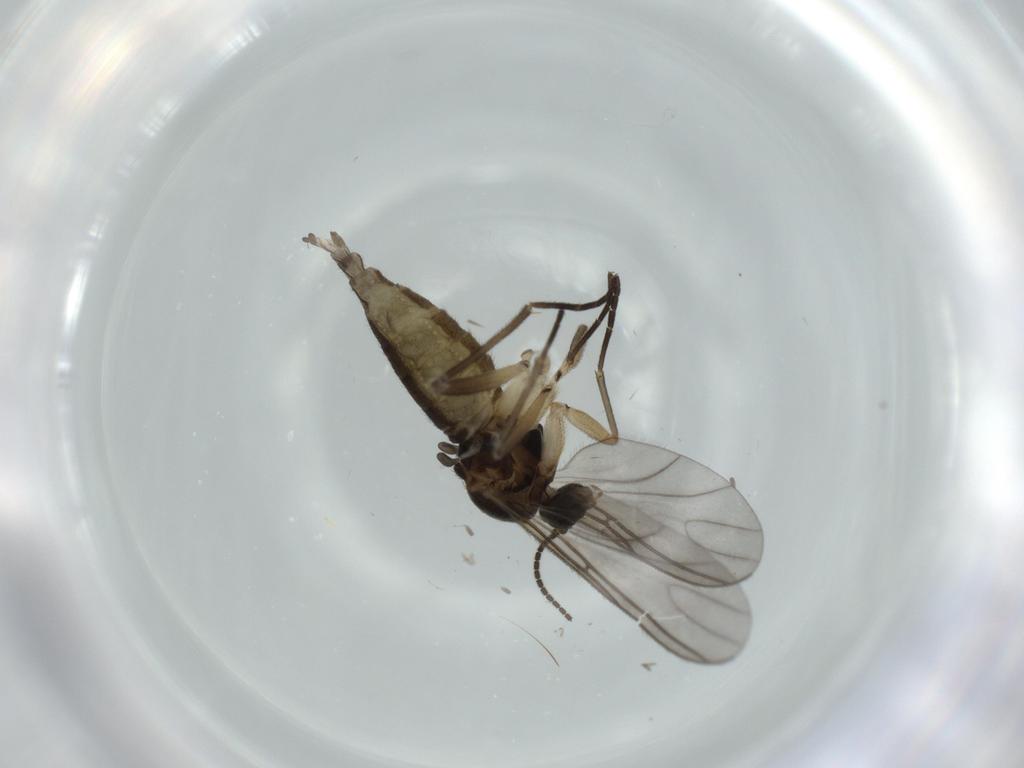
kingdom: Animalia
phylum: Arthropoda
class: Insecta
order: Diptera
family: Sciaridae
